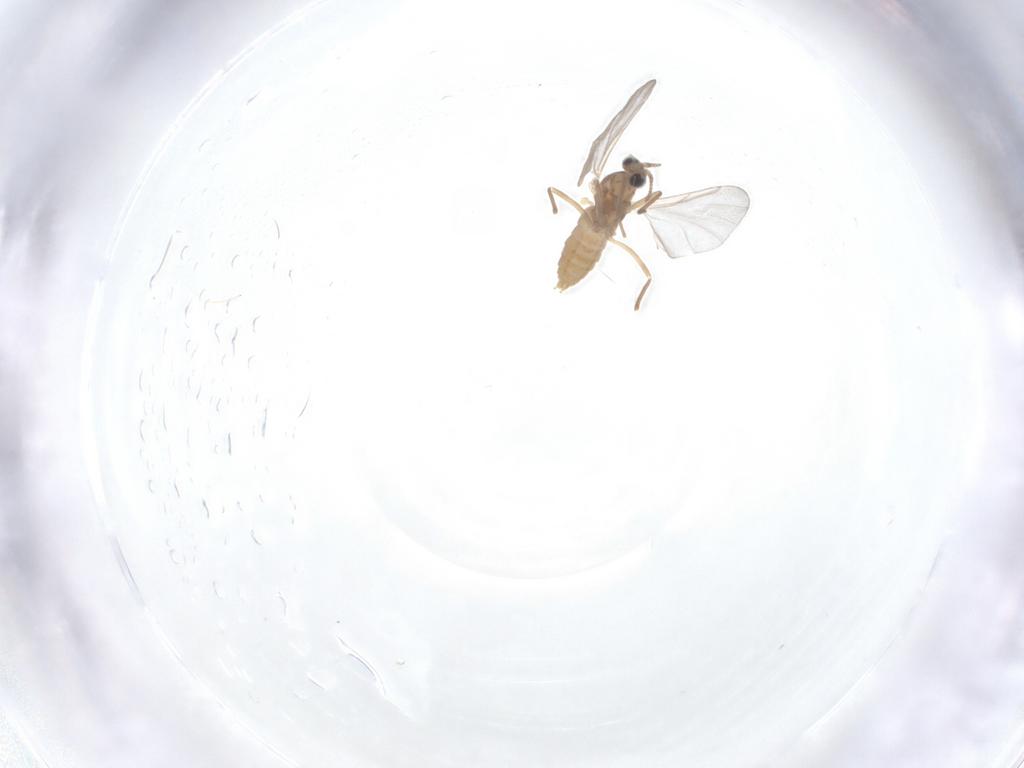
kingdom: Animalia
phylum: Arthropoda
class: Insecta
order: Diptera
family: Cecidomyiidae
